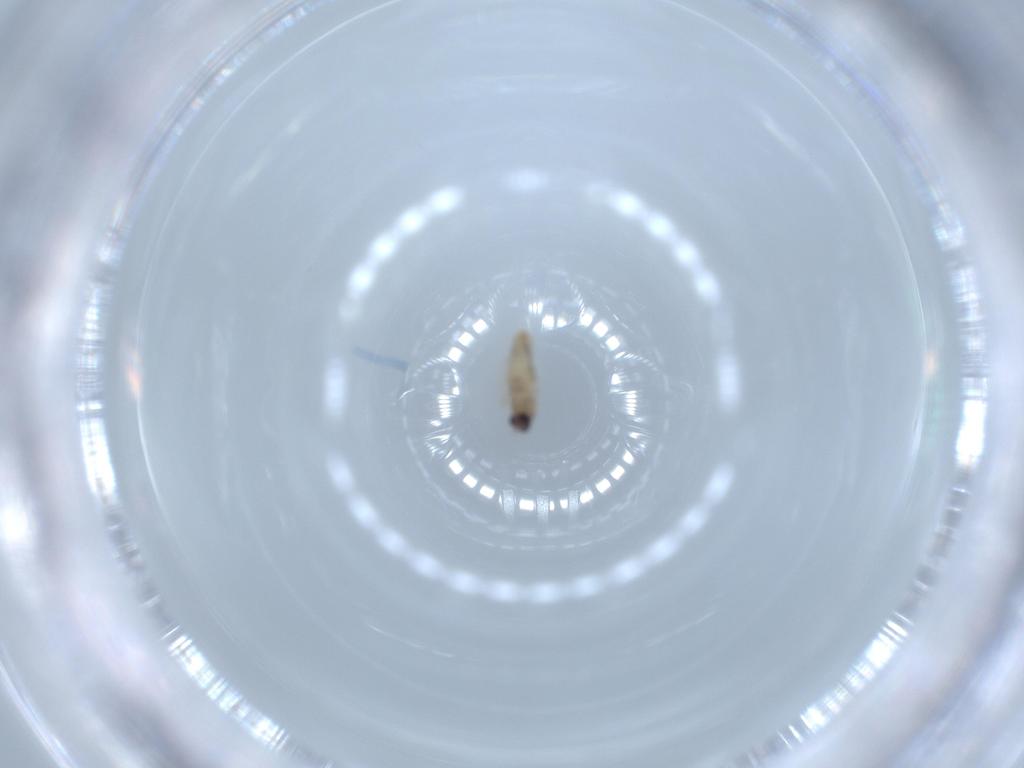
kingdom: Animalia
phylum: Arthropoda
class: Insecta
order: Diptera
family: Cecidomyiidae
